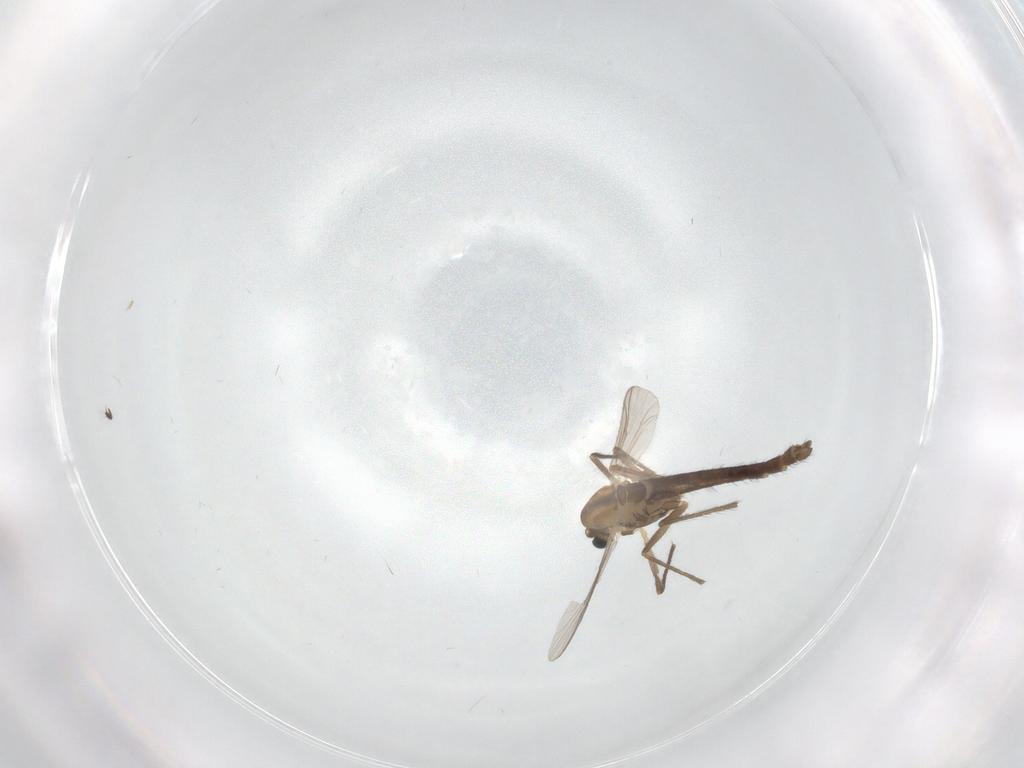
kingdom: Animalia
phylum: Arthropoda
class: Insecta
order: Diptera
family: Chironomidae
